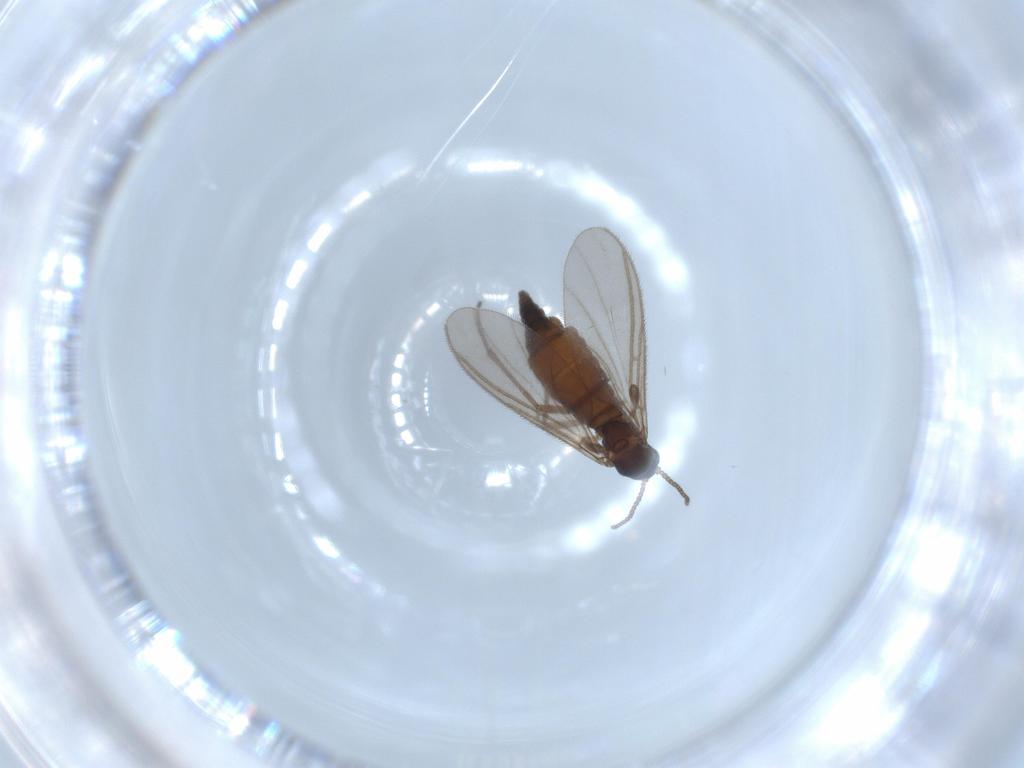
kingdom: Animalia
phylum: Arthropoda
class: Insecta
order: Diptera
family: Sciaridae
